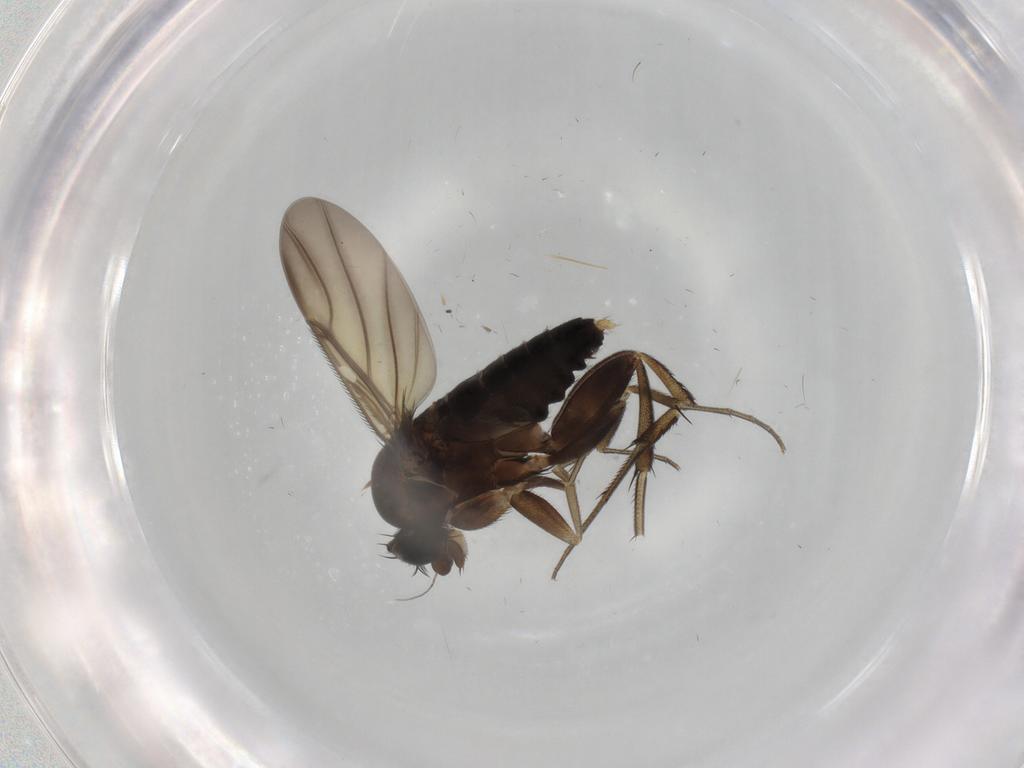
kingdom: Animalia
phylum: Arthropoda
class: Insecta
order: Diptera
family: Phoridae
